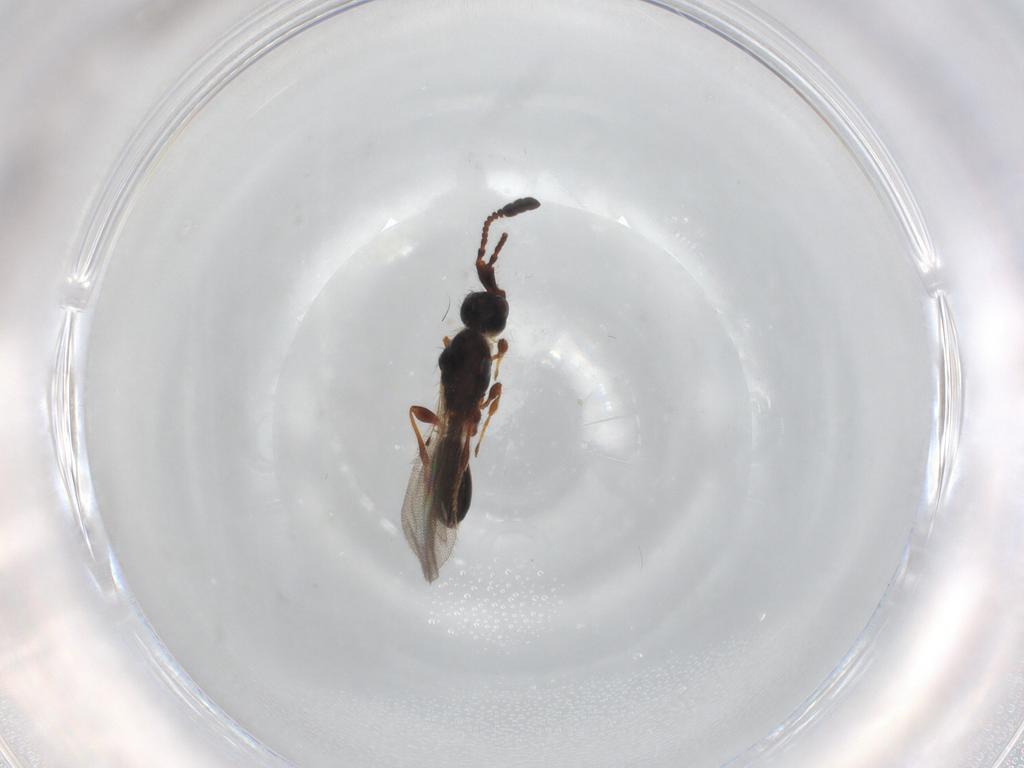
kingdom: Animalia
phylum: Arthropoda
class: Insecta
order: Hymenoptera
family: Diapriidae
